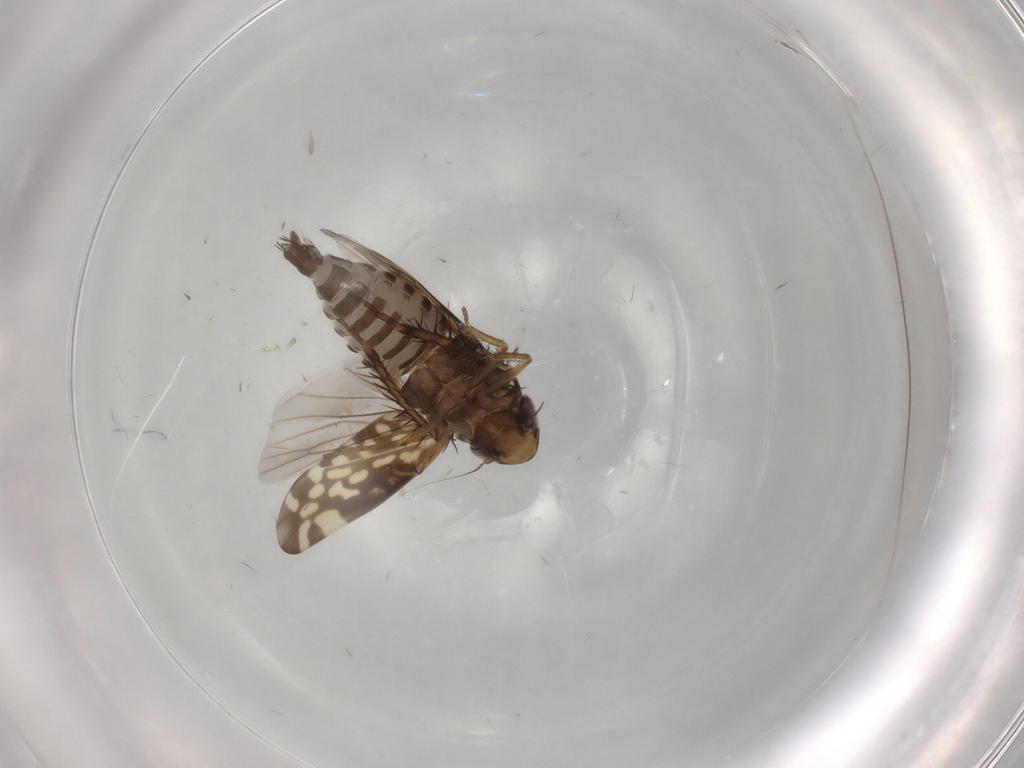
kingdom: Animalia
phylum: Arthropoda
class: Insecta
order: Hemiptera
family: Cicadellidae
